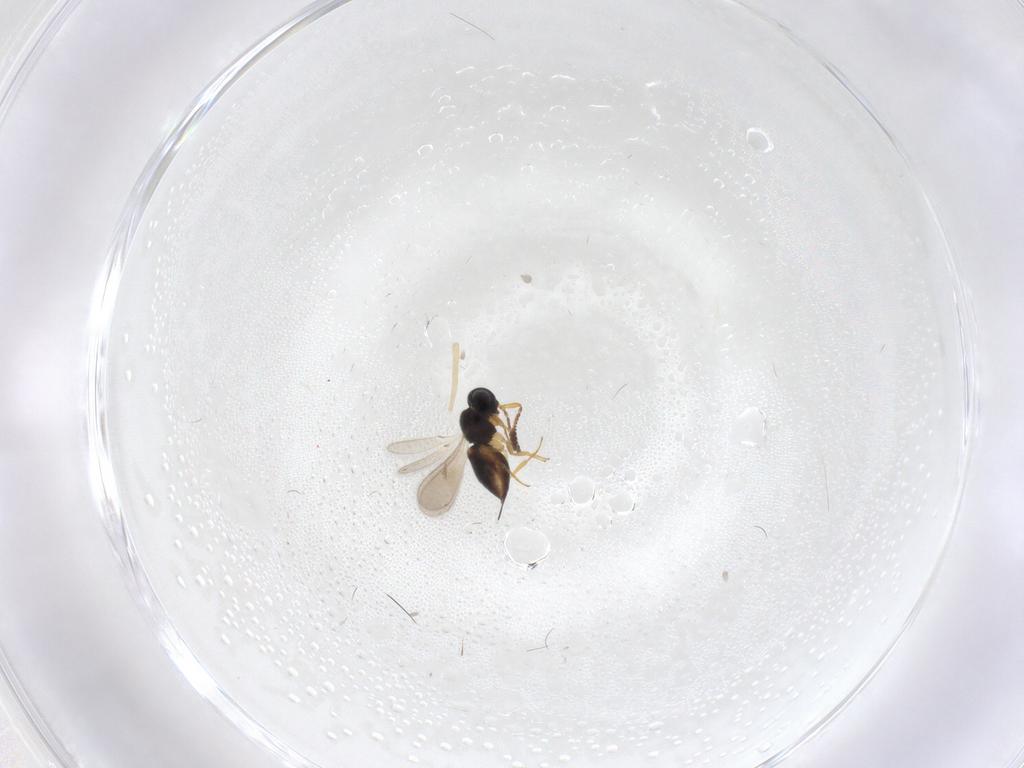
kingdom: Animalia
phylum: Arthropoda
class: Insecta
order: Hymenoptera
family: Scelionidae
